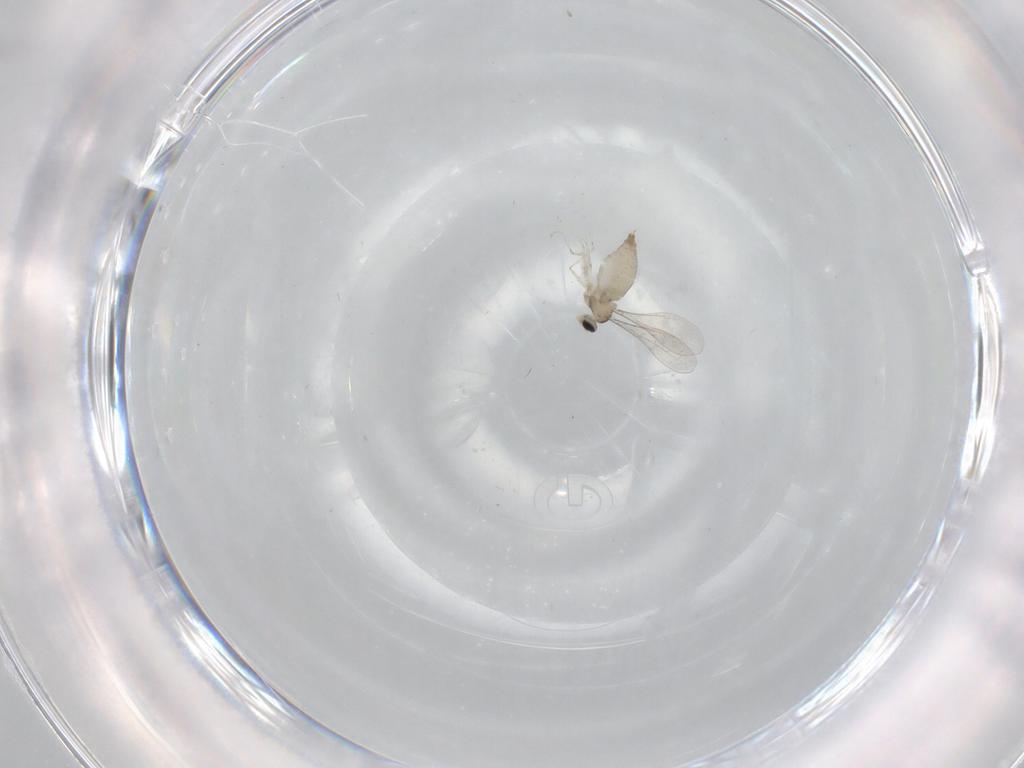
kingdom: Animalia
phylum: Arthropoda
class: Insecta
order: Diptera
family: Cecidomyiidae
